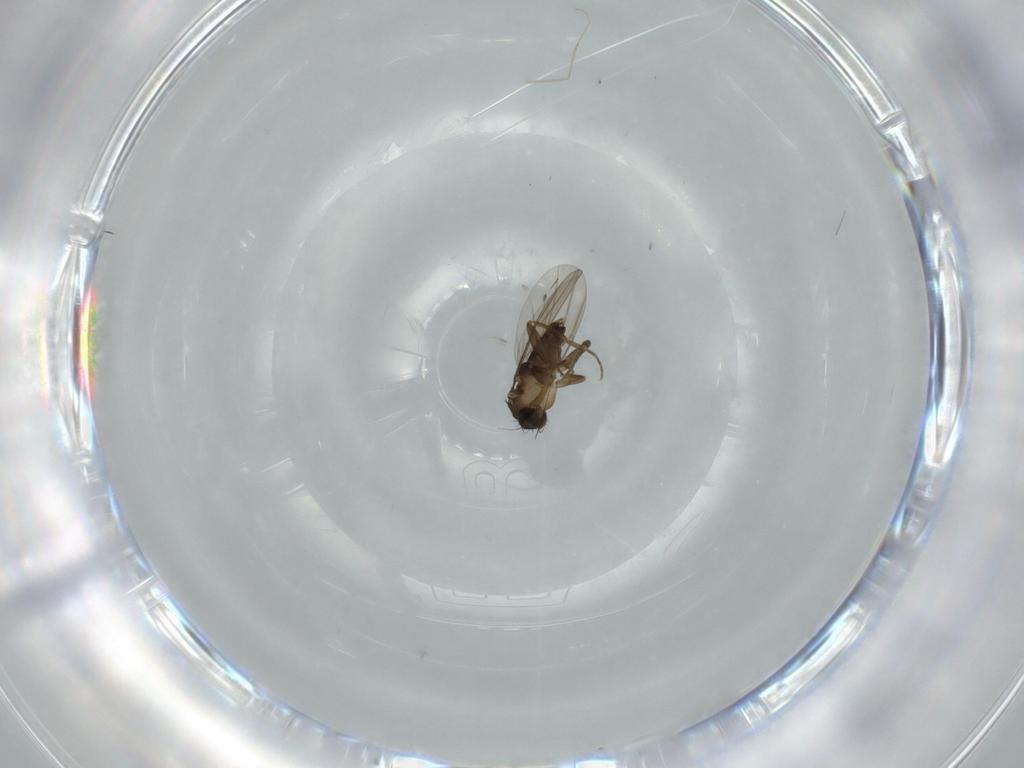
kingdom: Animalia
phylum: Arthropoda
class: Insecta
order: Diptera
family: Phoridae
